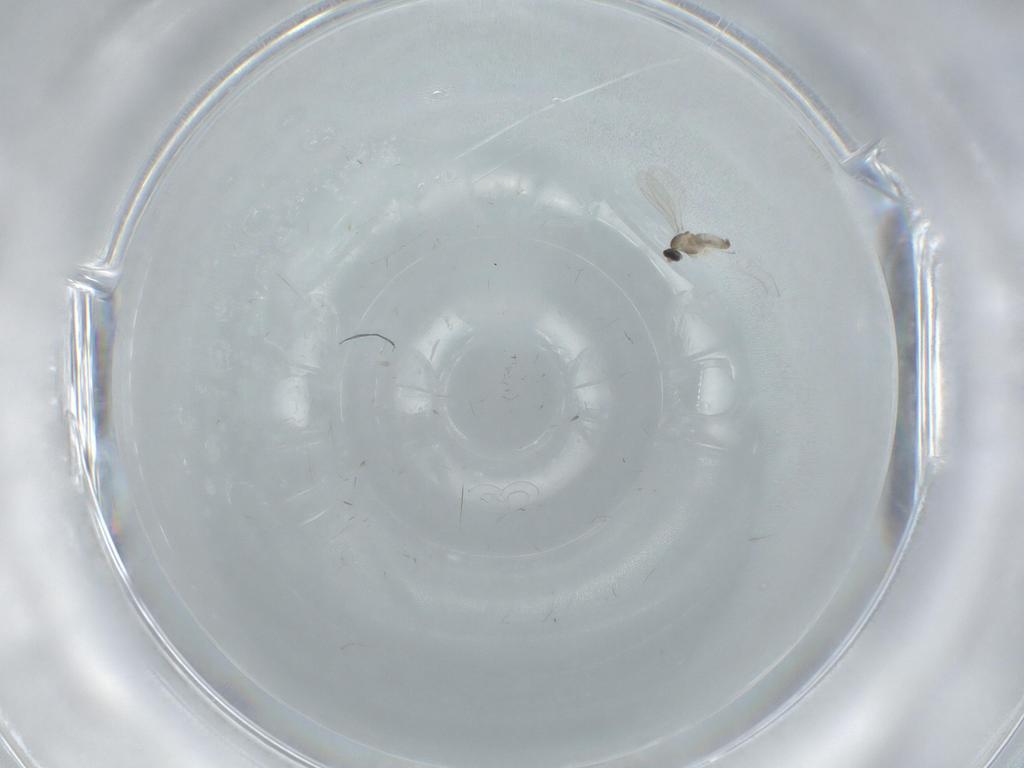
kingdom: Animalia
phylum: Arthropoda
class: Insecta
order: Diptera
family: Cecidomyiidae
